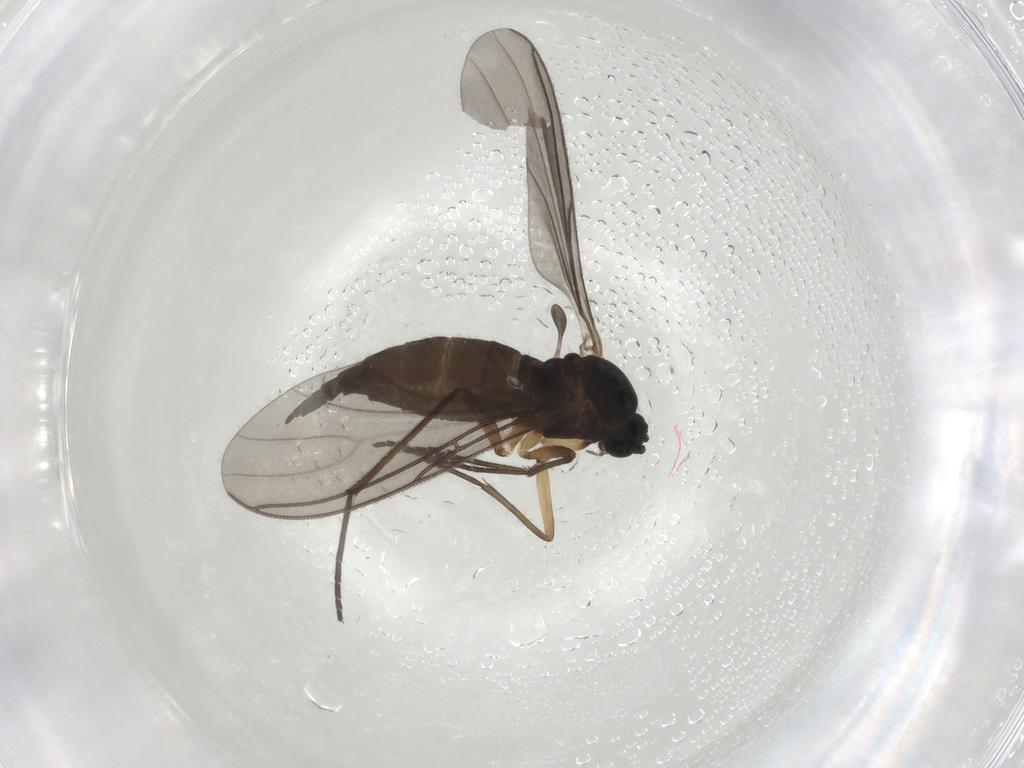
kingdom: Animalia
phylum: Arthropoda
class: Insecta
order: Diptera
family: Sciaridae
